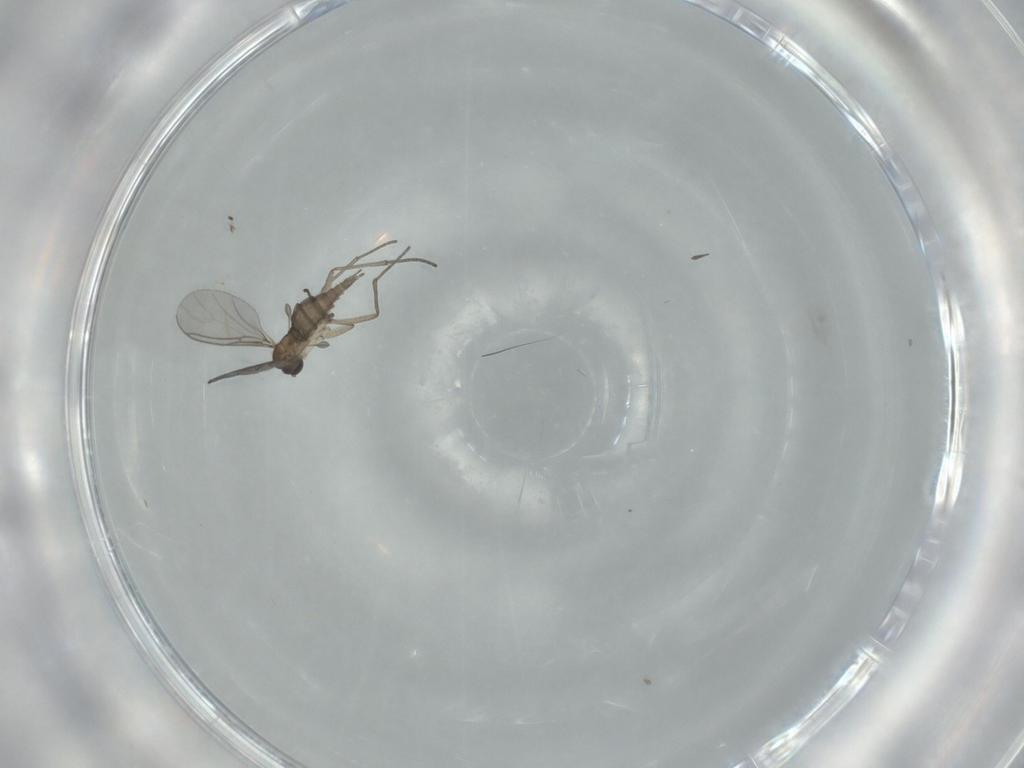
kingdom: Animalia
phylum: Arthropoda
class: Insecta
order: Diptera
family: Sciaridae
